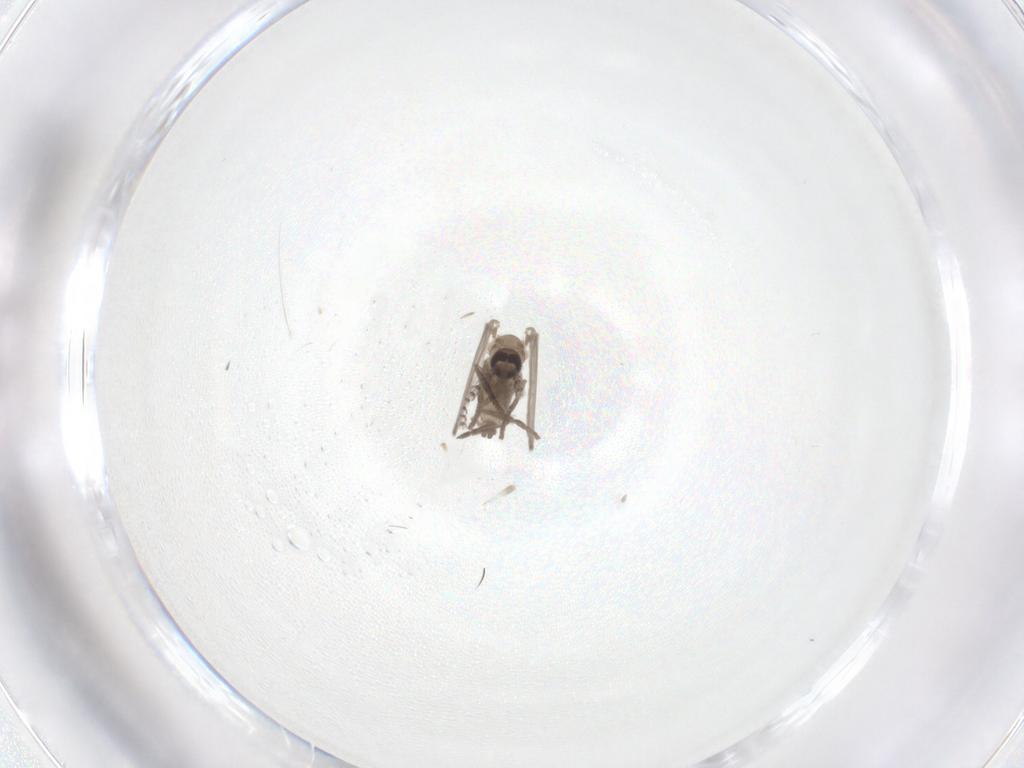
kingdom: Animalia
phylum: Arthropoda
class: Insecta
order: Diptera
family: Psychodidae
